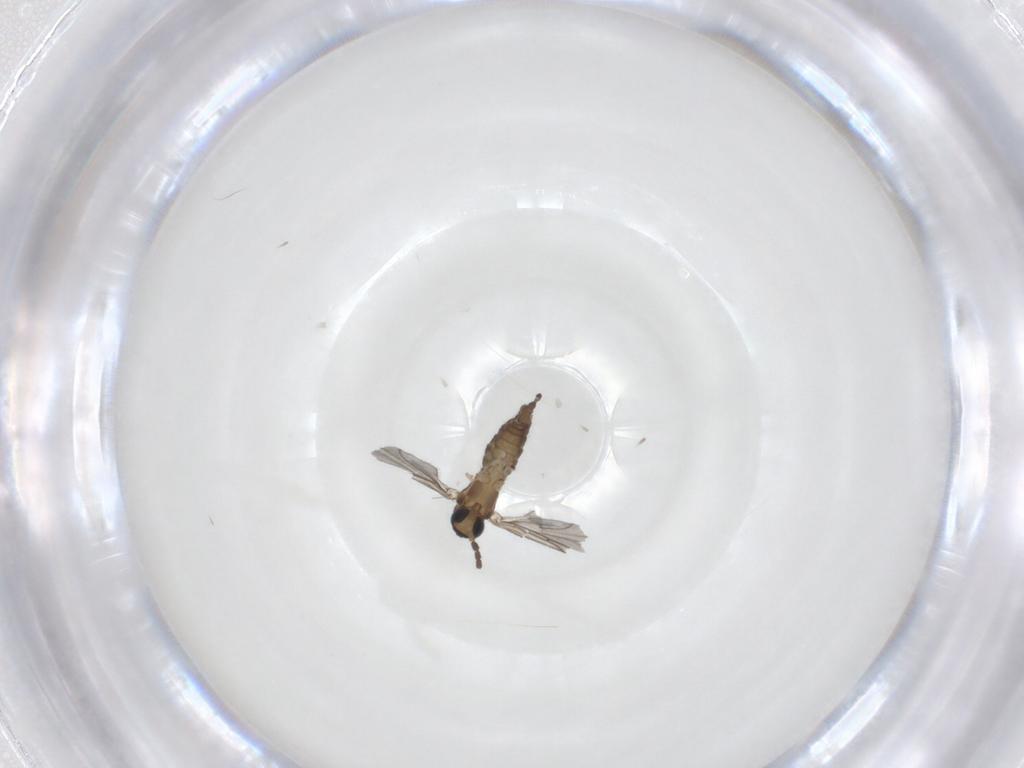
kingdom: Animalia
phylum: Arthropoda
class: Insecta
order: Diptera
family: Sciaridae
